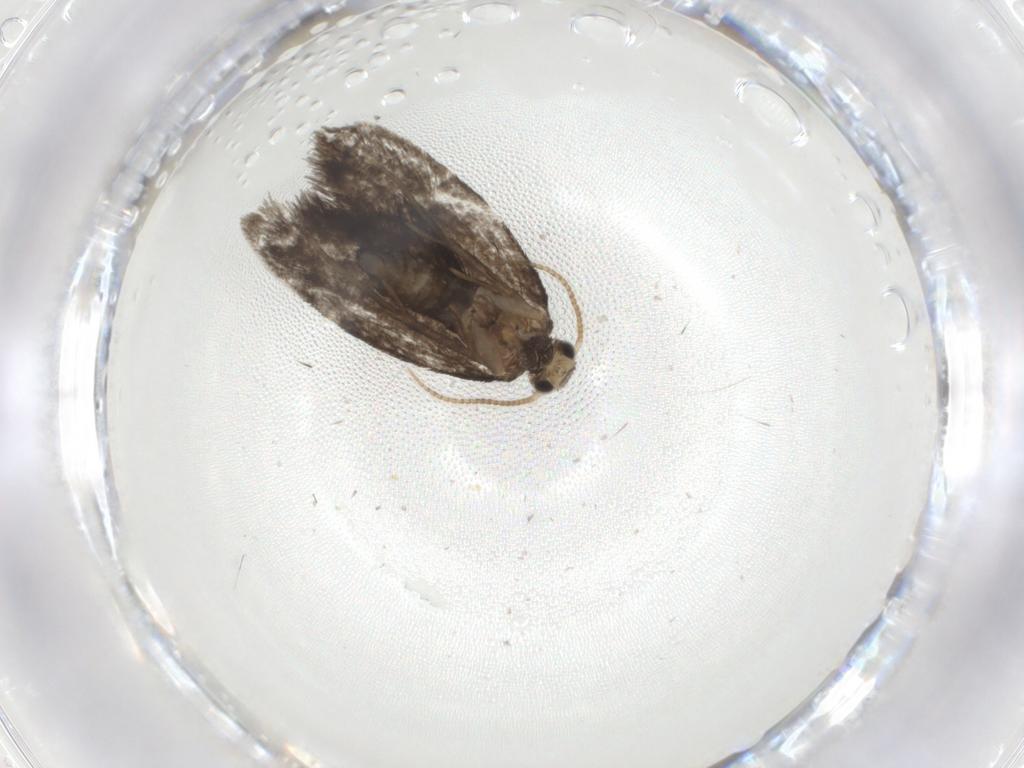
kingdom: Animalia
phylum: Arthropoda
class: Insecta
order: Lepidoptera
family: Psychidae
